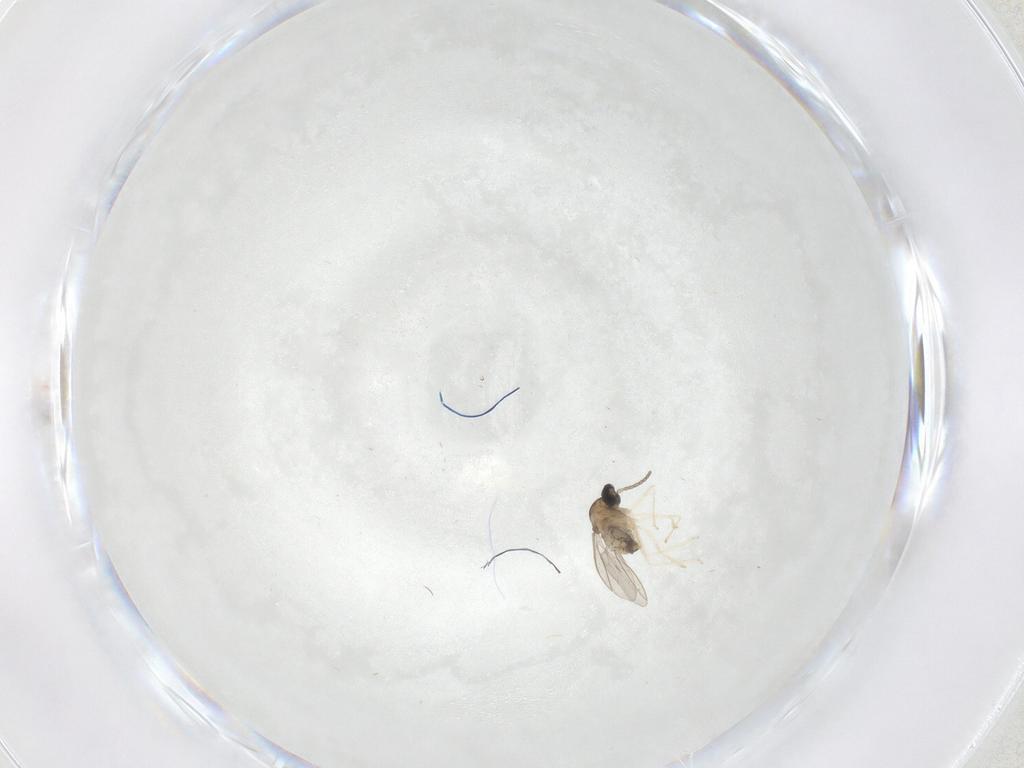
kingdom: Animalia
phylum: Arthropoda
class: Insecta
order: Diptera
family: Cecidomyiidae
